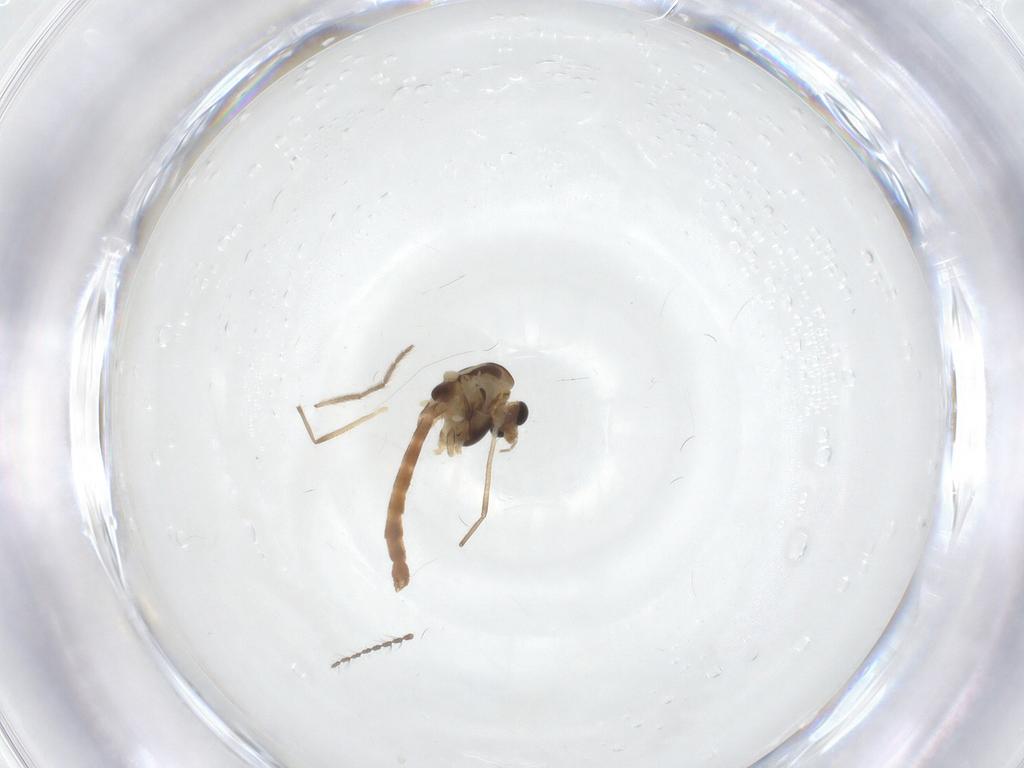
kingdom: Animalia
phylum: Arthropoda
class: Insecta
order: Diptera
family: Chironomidae
